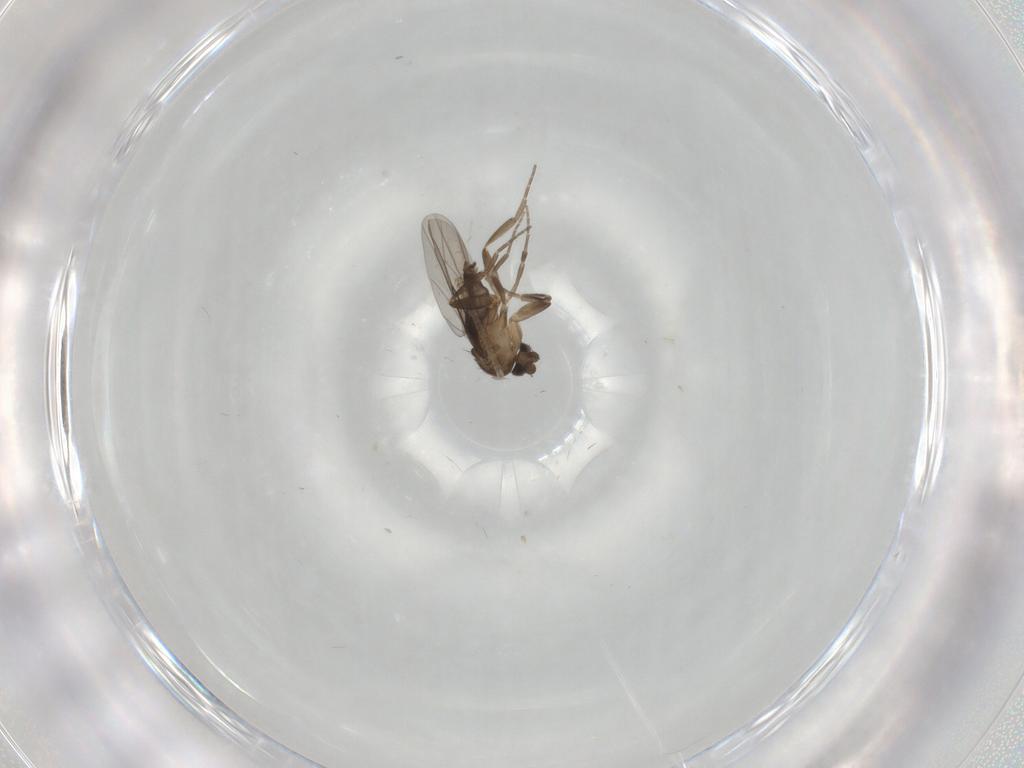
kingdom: Animalia
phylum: Arthropoda
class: Insecta
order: Diptera
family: Phoridae
